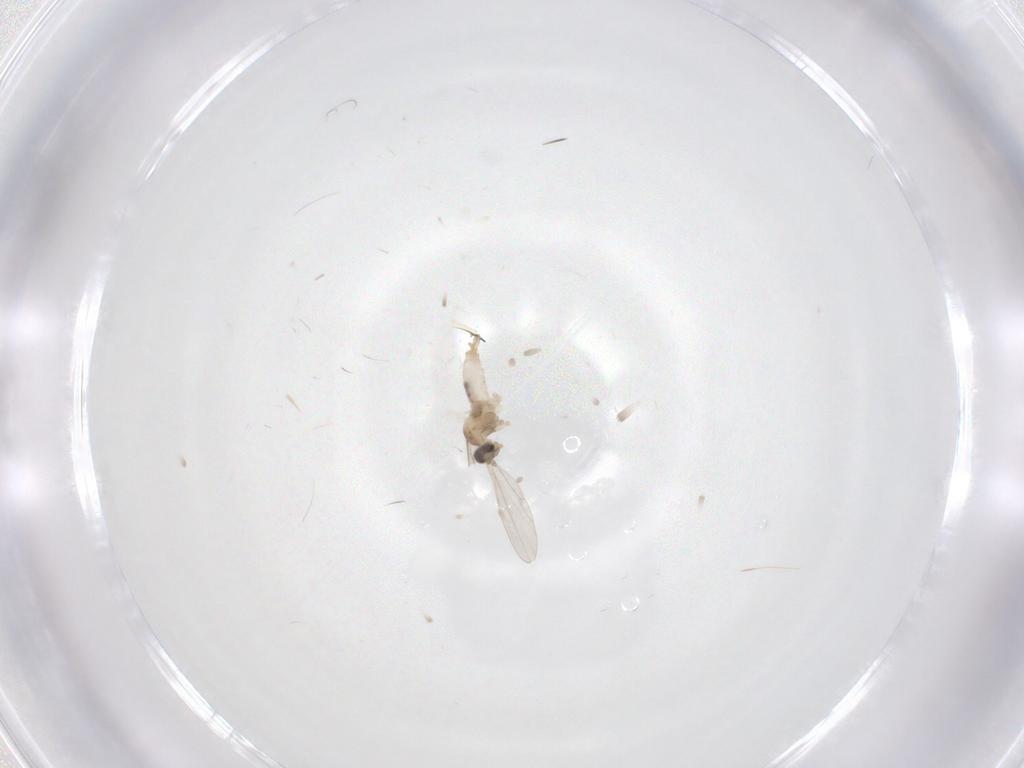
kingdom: Animalia
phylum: Arthropoda
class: Insecta
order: Diptera
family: Cecidomyiidae
